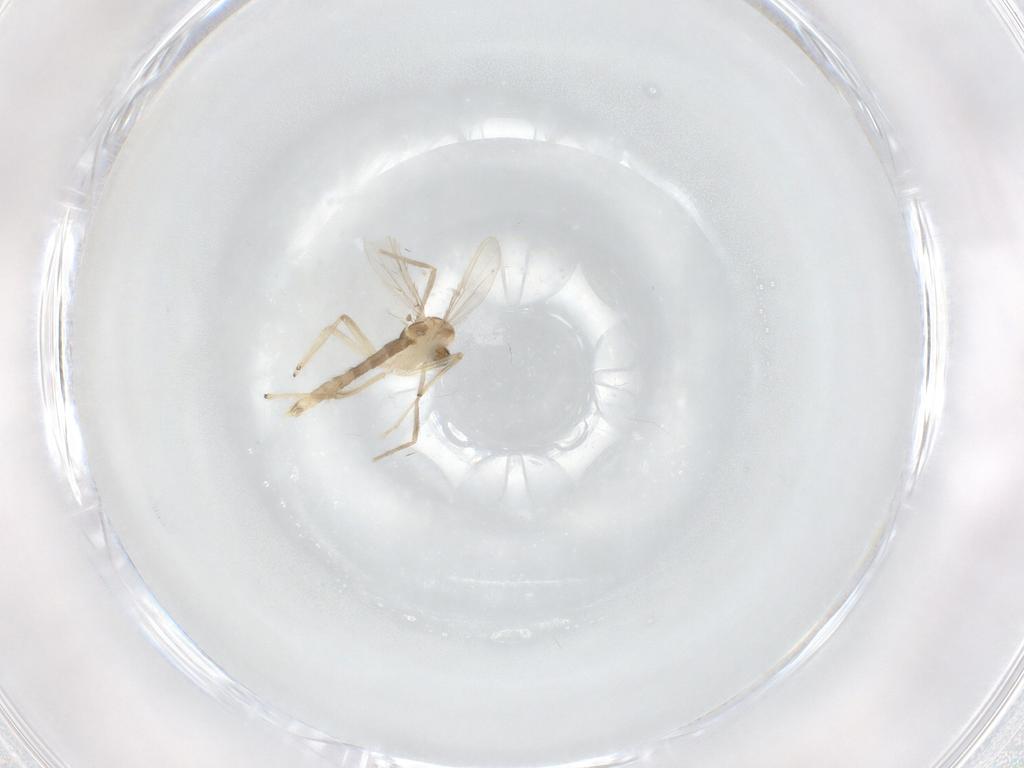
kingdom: Animalia
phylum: Arthropoda
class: Insecta
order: Diptera
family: Chironomidae
